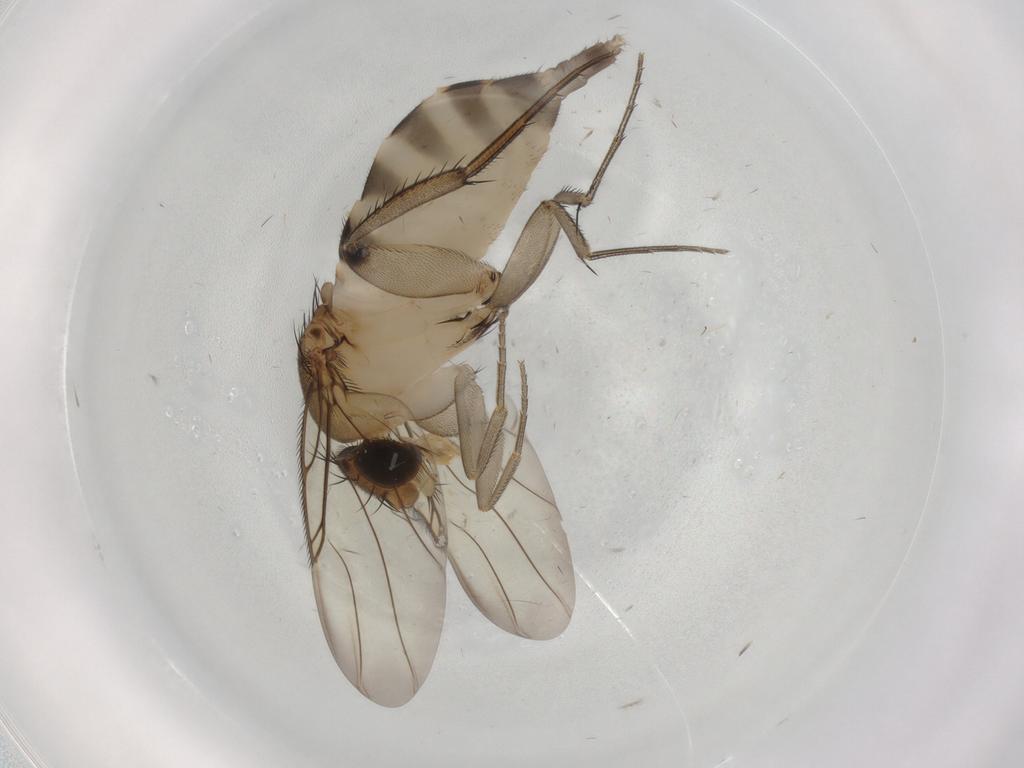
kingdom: Animalia
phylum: Arthropoda
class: Insecta
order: Diptera
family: Phoridae
